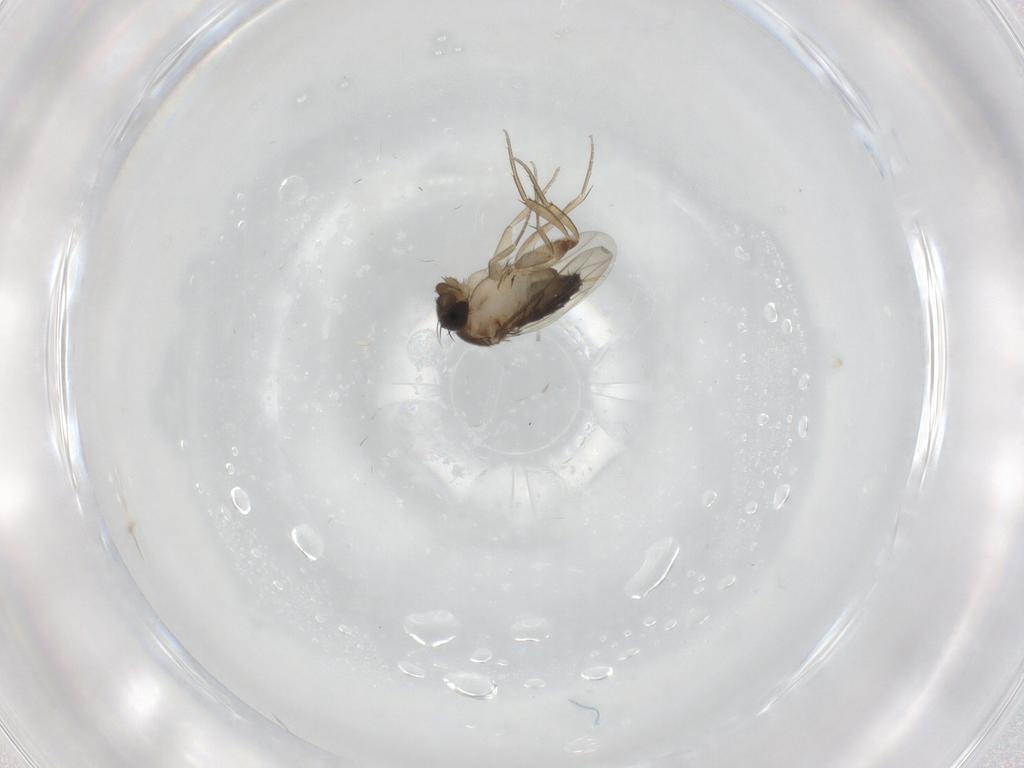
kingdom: Animalia
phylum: Arthropoda
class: Insecta
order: Diptera
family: Phoridae
